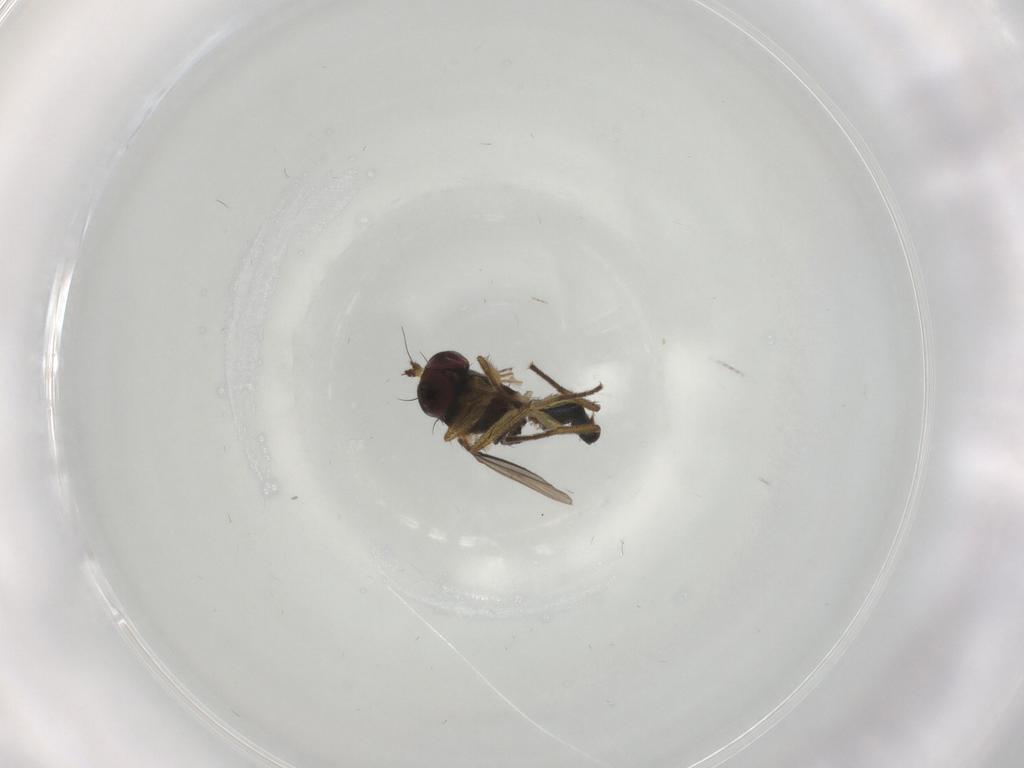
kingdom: Animalia
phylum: Arthropoda
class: Insecta
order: Diptera
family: Dolichopodidae
